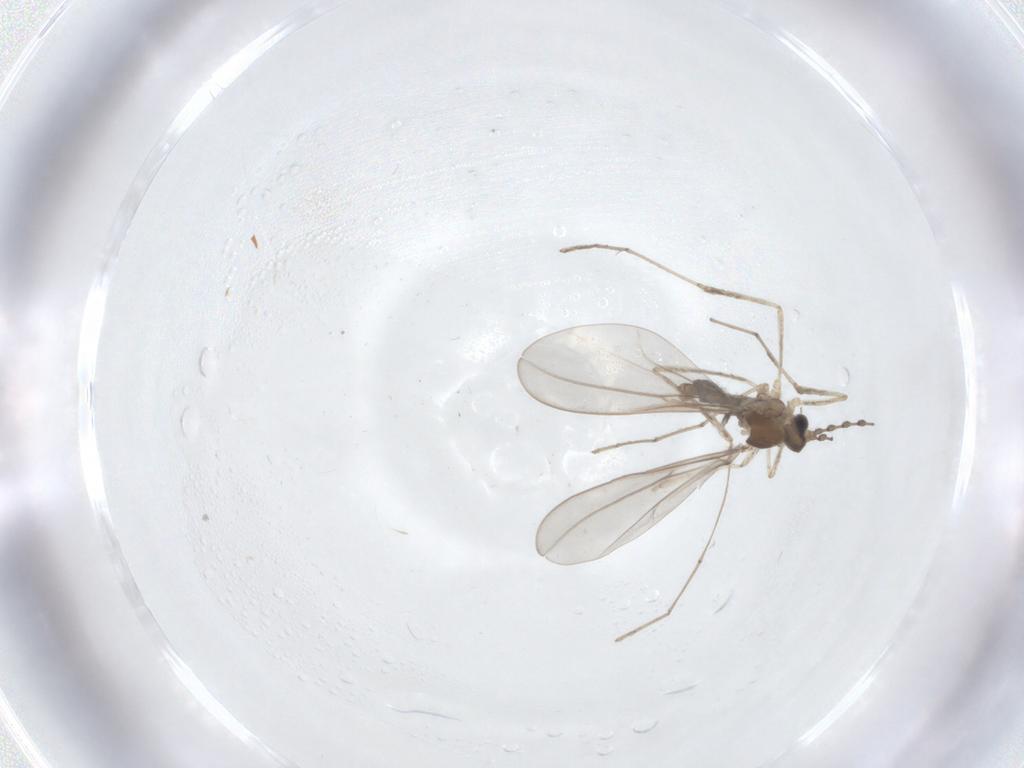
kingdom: Animalia
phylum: Arthropoda
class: Insecta
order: Diptera
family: Cecidomyiidae
